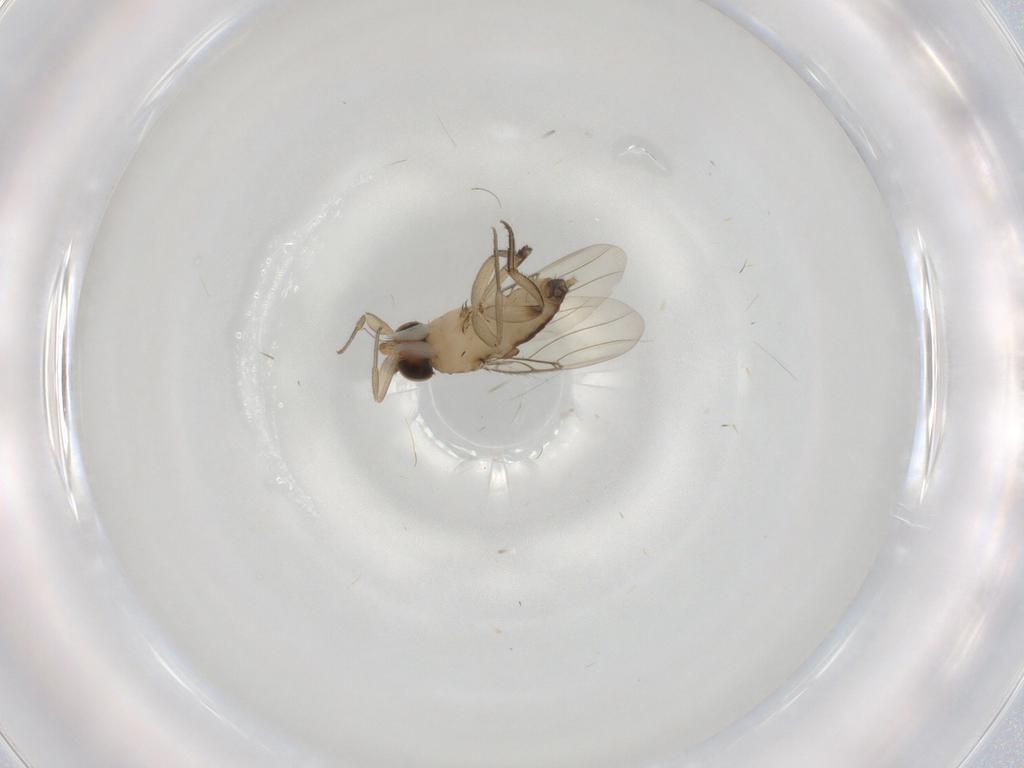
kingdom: Animalia
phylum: Arthropoda
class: Insecta
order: Diptera
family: Phoridae
